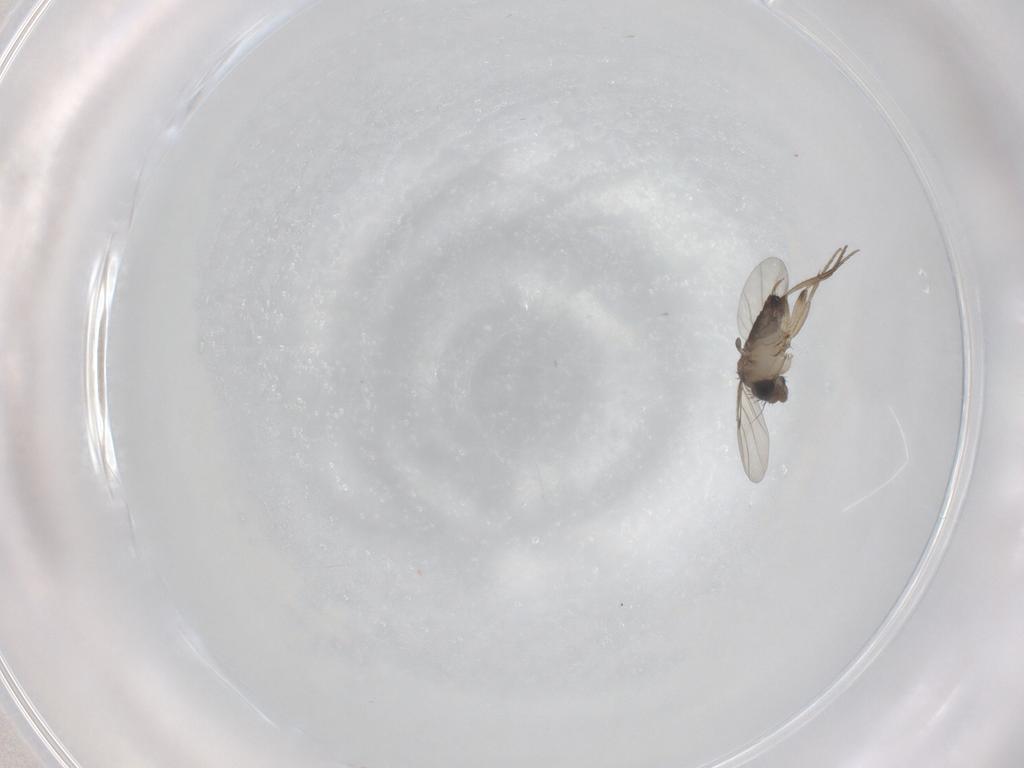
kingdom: Animalia
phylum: Arthropoda
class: Insecta
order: Diptera
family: Phoridae
